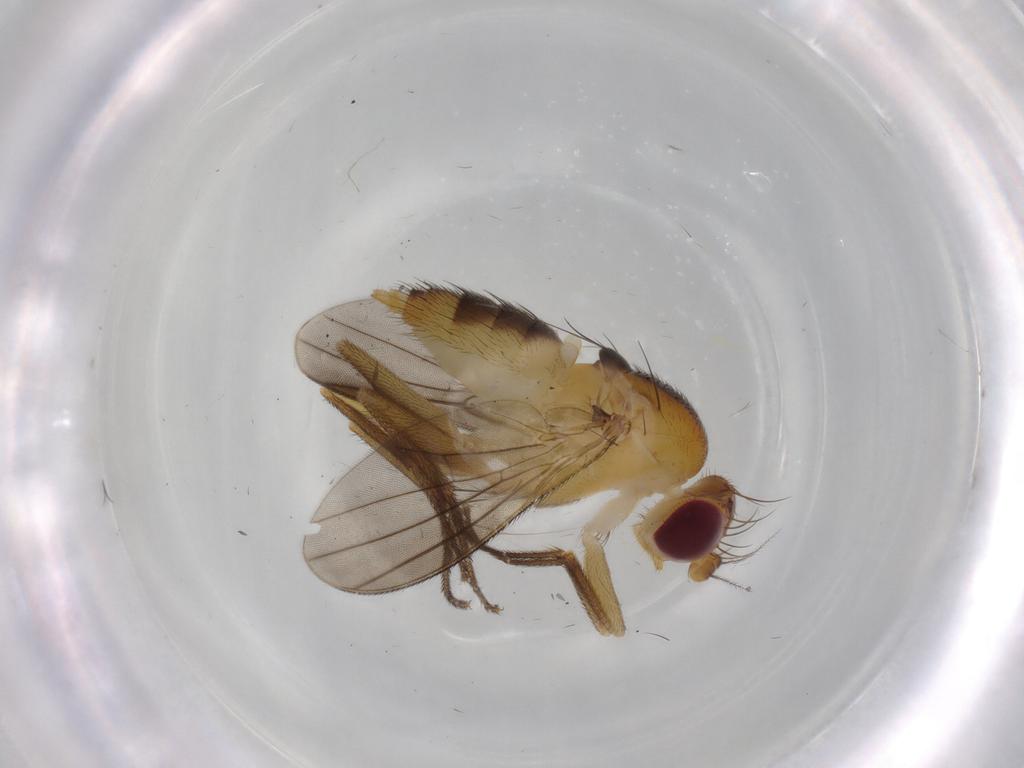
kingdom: Animalia
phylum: Arthropoda
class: Insecta
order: Diptera
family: Clusiidae
